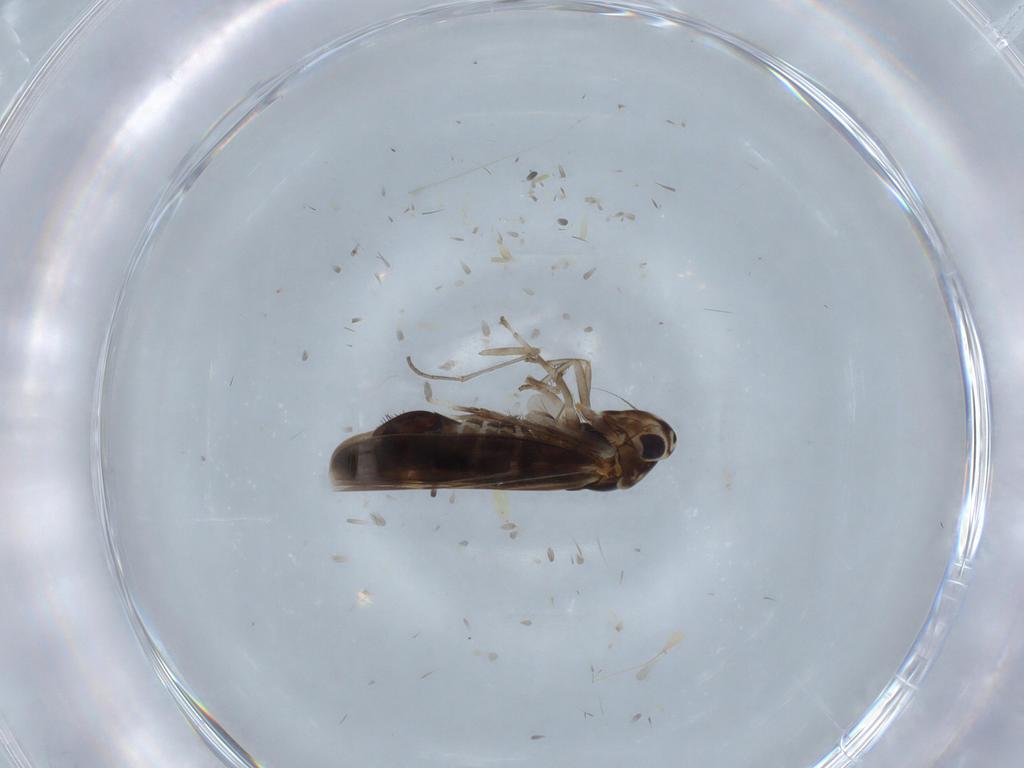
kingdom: Animalia
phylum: Arthropoda
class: Insecta
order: Hemiptera
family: Cicadellidae
